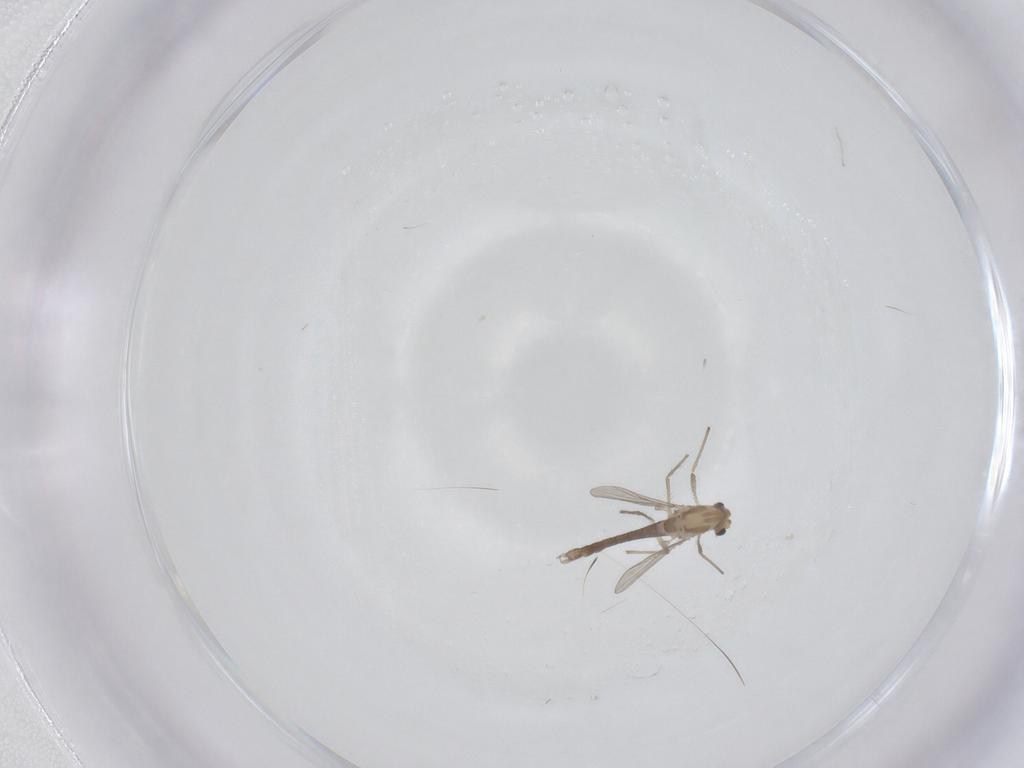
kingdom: Animalia
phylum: Arthropoda
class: Insecta
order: Diptera
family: Chironomidae
